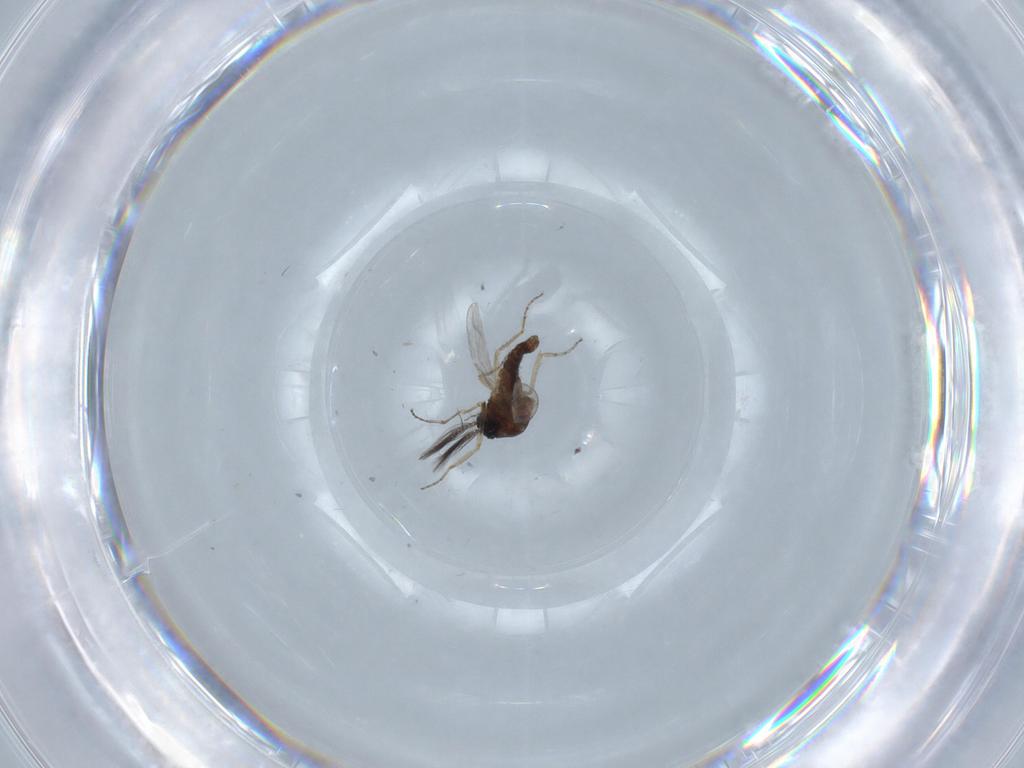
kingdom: Animalia
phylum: Arthropoda
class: Insecta
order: Diptera
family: Ceratopogonidae
